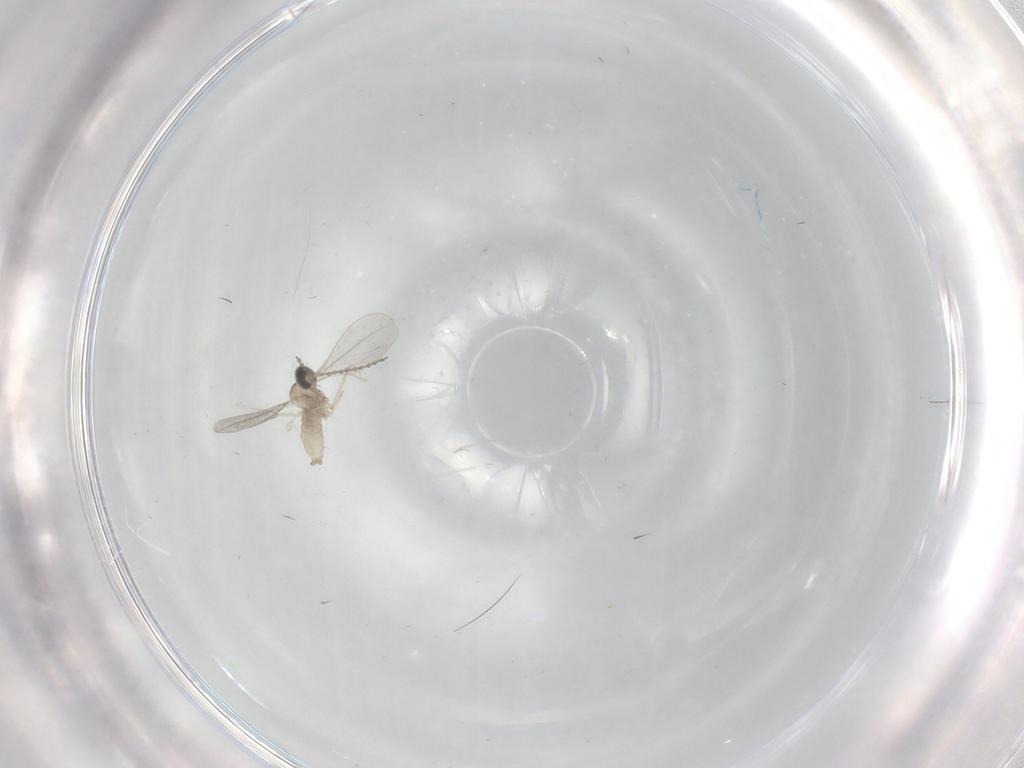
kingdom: Animalia
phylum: Arthropoda
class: Insecta
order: Diptera
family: Cecidomyiidae
